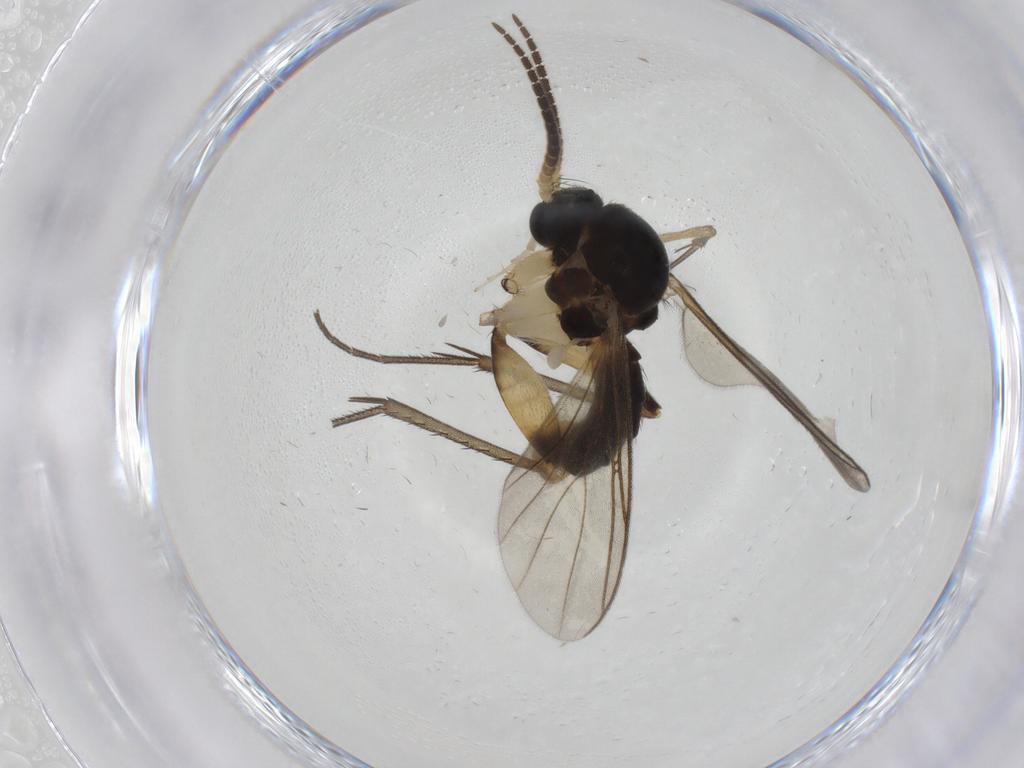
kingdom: Animalia
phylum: Arthropoda
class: Insecta
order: Diptera
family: Mycetophilidae
